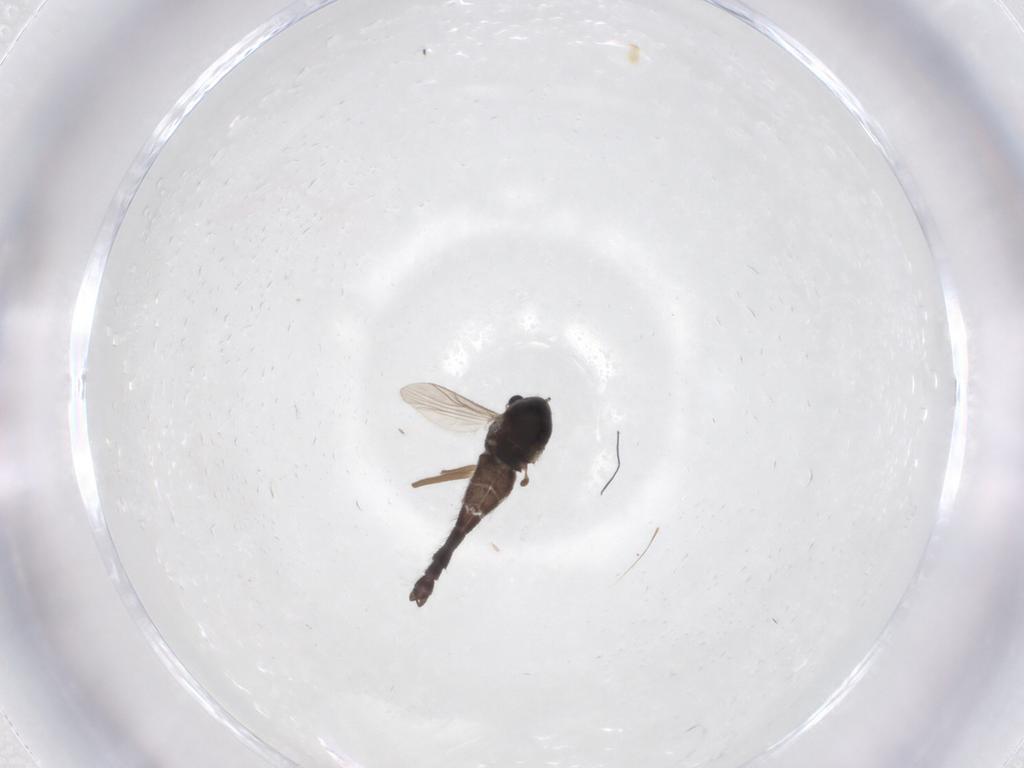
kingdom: Animalia
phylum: Arthropoda
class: Insecta
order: Diptera
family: Chironomidae
